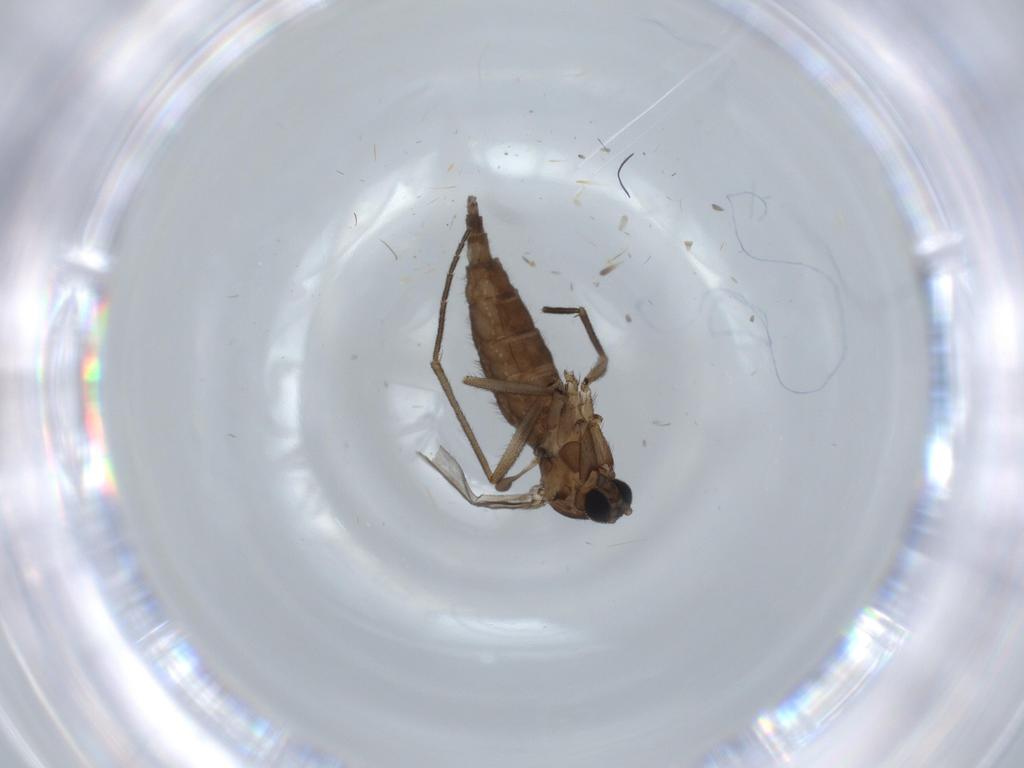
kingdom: Animalia
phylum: Arthropoda
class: Insecta
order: Diptera
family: Sciaridae
